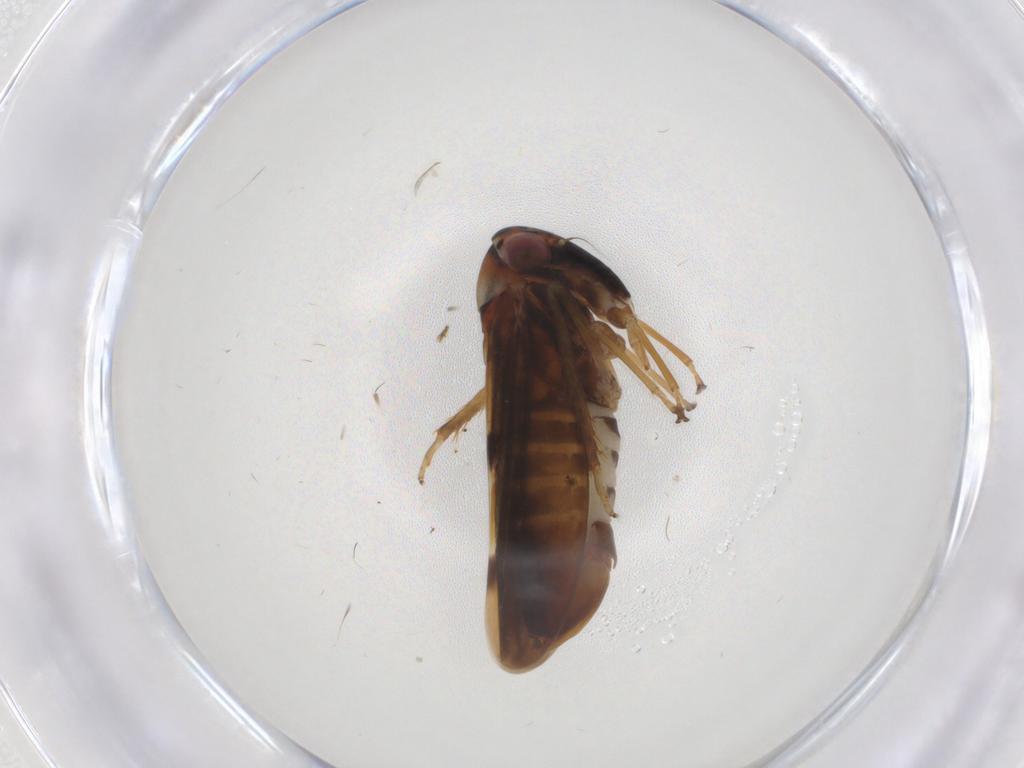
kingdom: Animalia
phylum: Arthropoda
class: Insecta
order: Hemiptera
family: Cicadellidae
